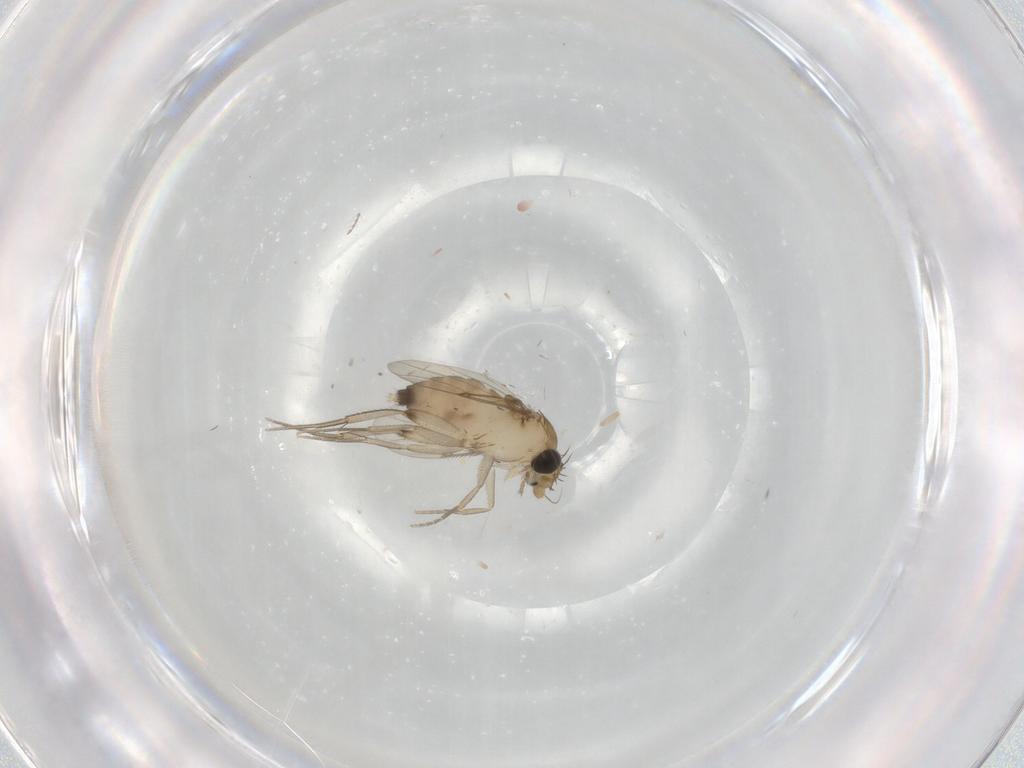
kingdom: Animalia
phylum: Arthropoda
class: Insecta
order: Diptera
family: Phoridae
